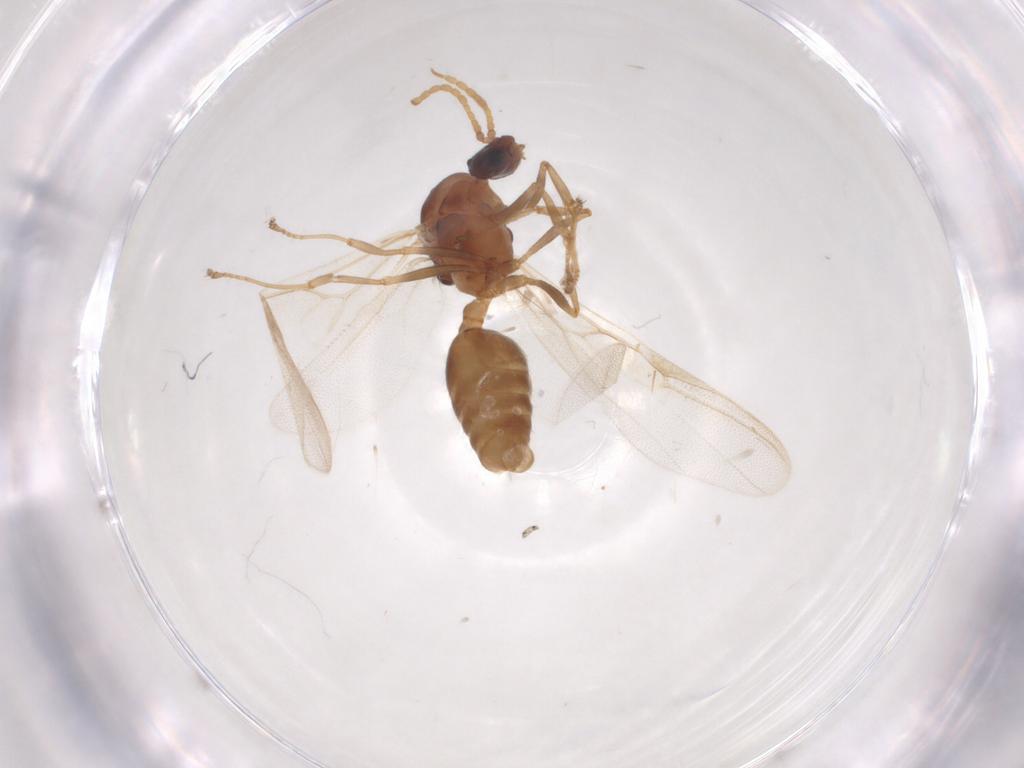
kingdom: Animalia
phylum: Arthropoda
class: Insecta
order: Hymenoptera
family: Formicidae
